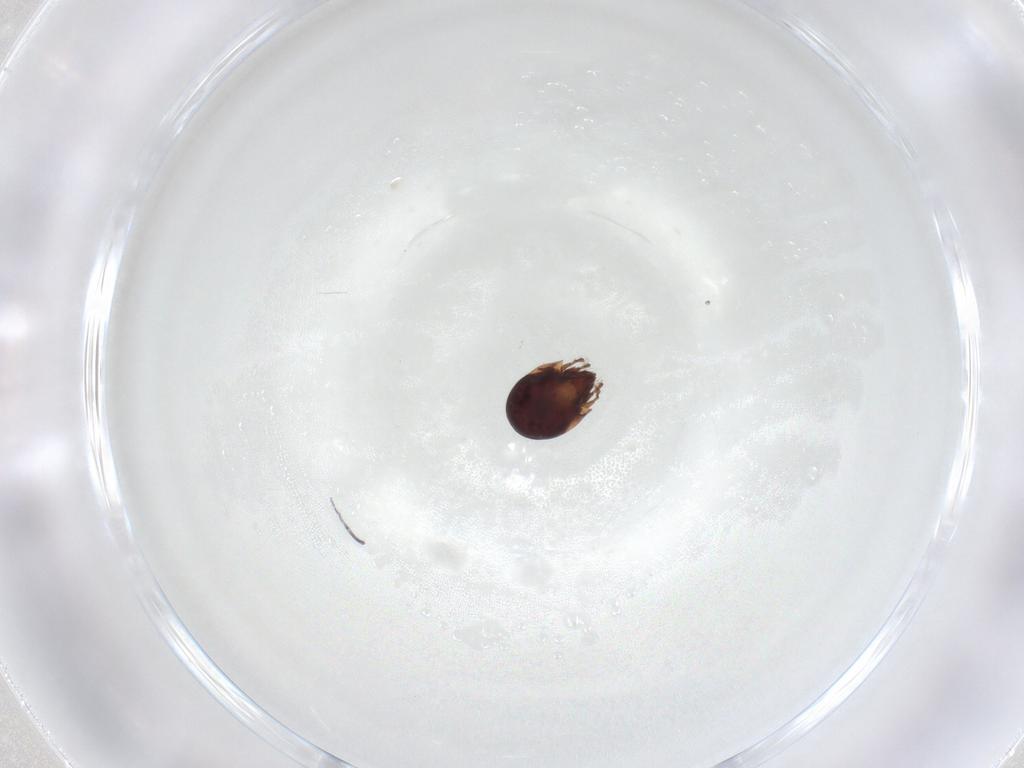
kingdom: Animalia
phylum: Arthropoda
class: Arachnida
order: Sarcoptiformes
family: Humerobatidae
